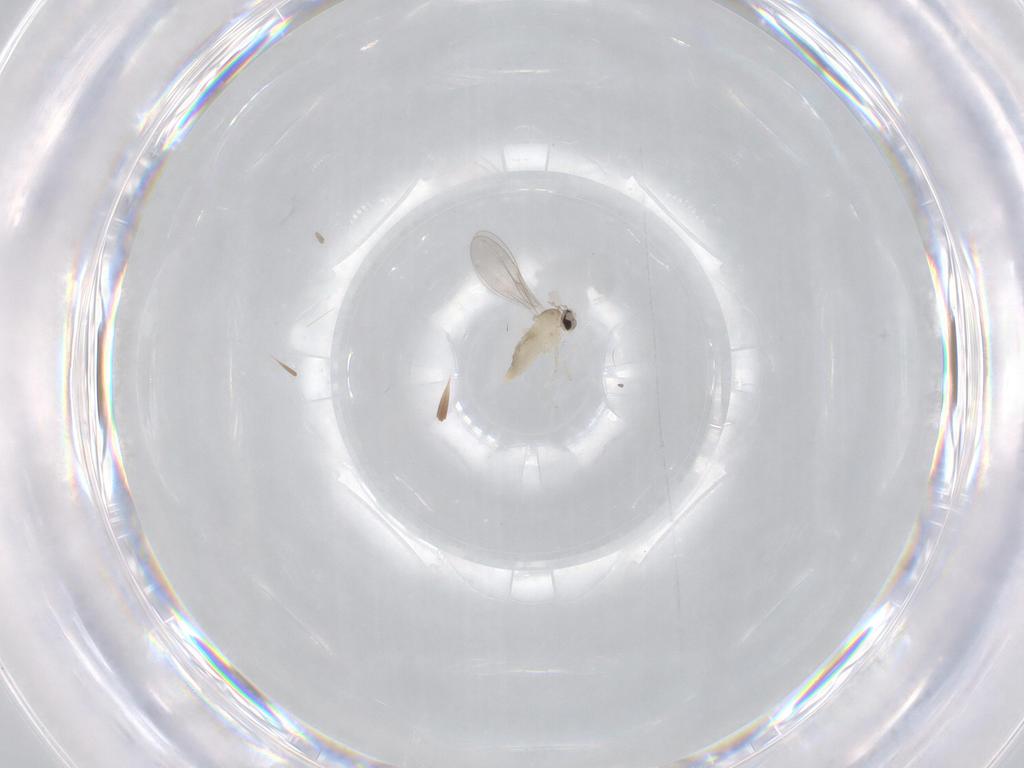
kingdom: Animalia
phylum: Arthropoda
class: Insecta
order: Diptera
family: Cecidomyiidae
